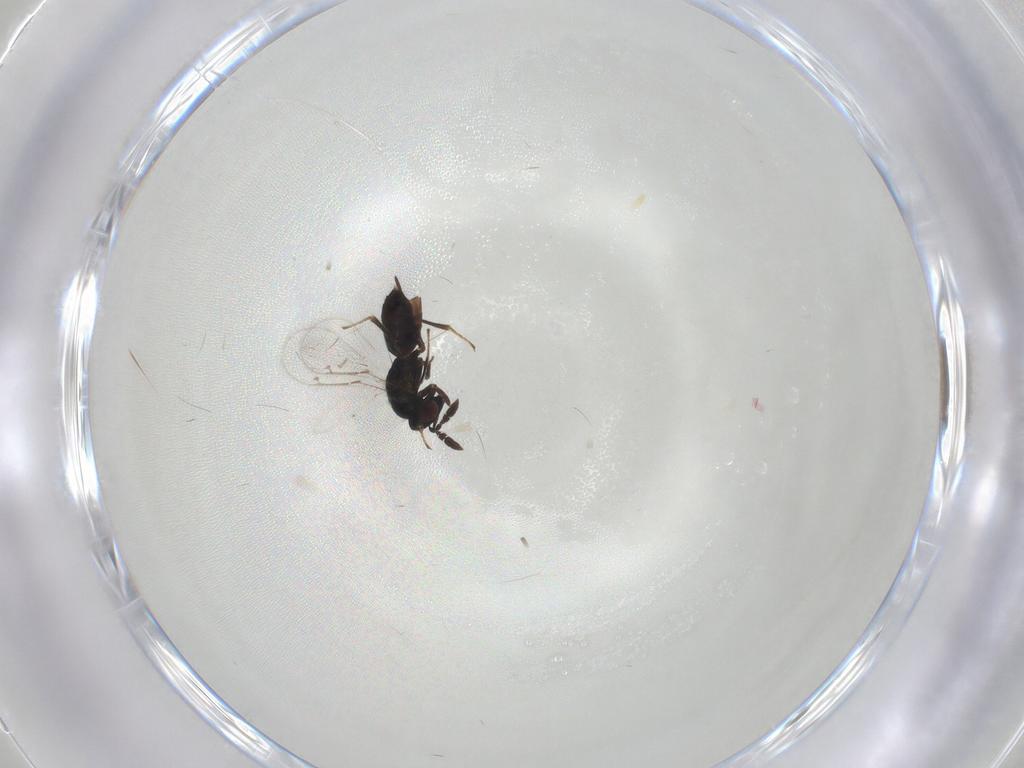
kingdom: Animalia
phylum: Arthropoda
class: Insecta
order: Hymenoptera
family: Pirenidae
